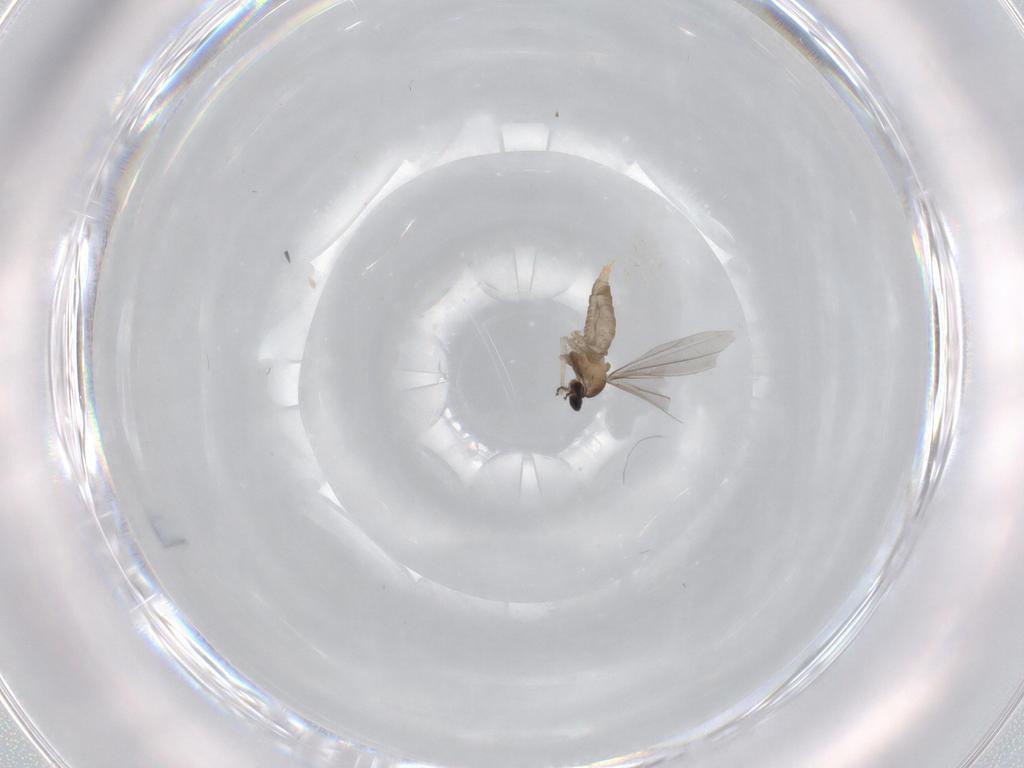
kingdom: Animalia
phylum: Arthropoda
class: Insecta
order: Diptera
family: Cecidomyiidae
